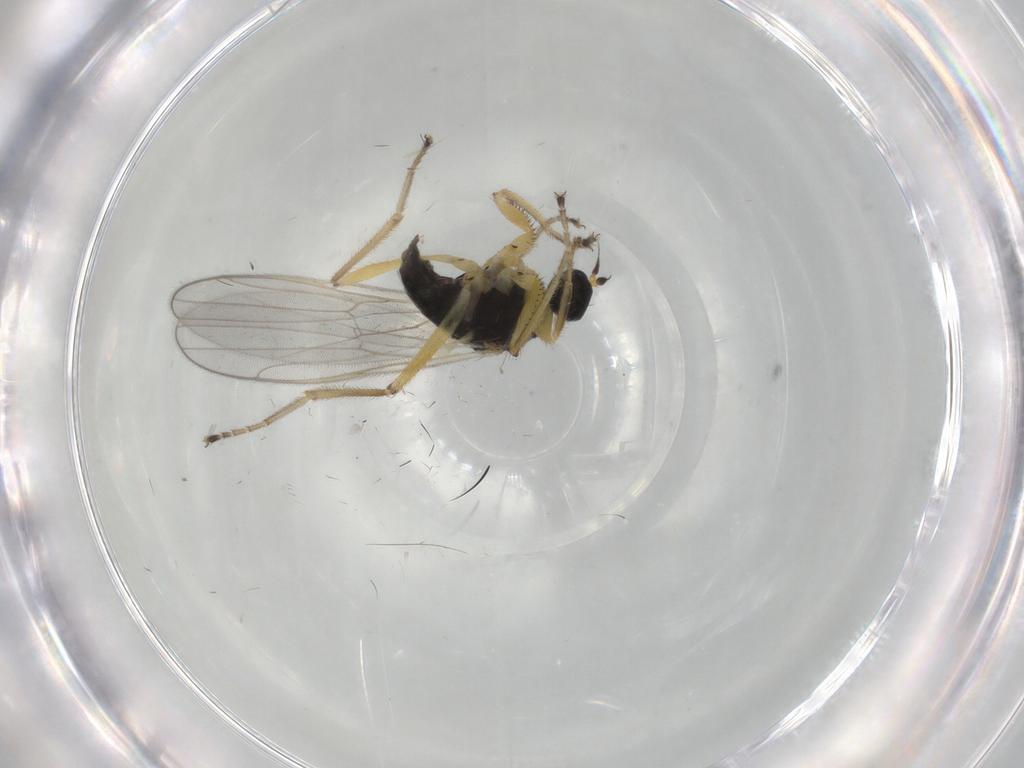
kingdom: Animalia
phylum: Arthropoda
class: Insecta
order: Diptera
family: Hybotidae
